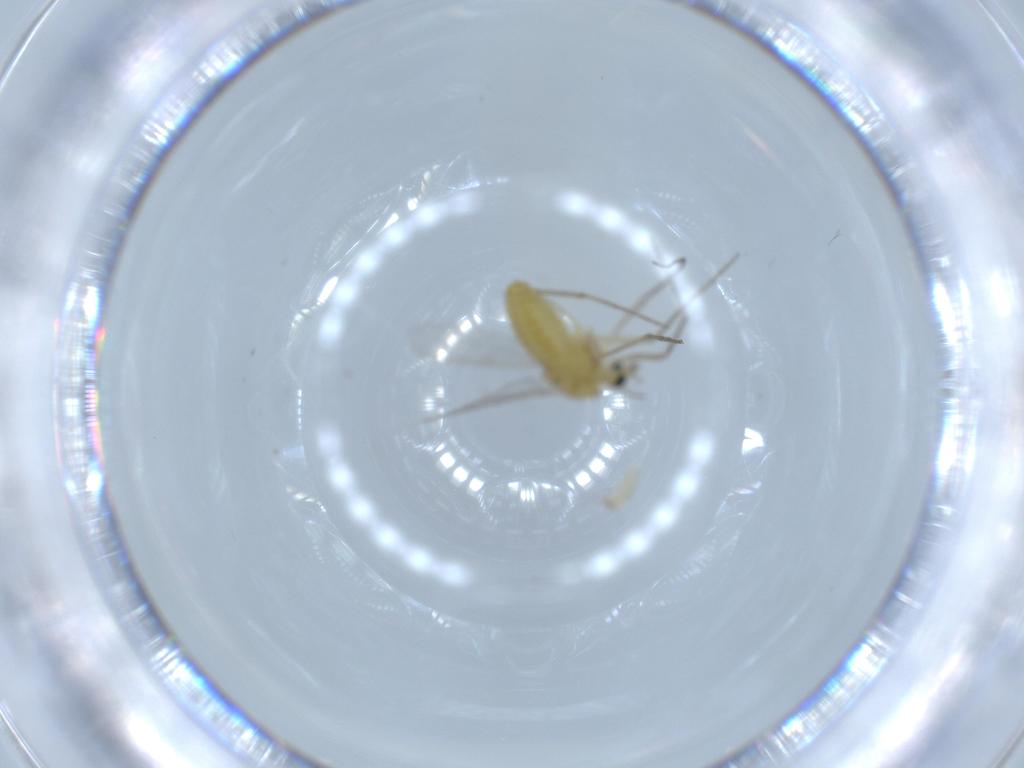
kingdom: Animalia
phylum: Arthropoda
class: Insecta
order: Diptera
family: Chironomidae
